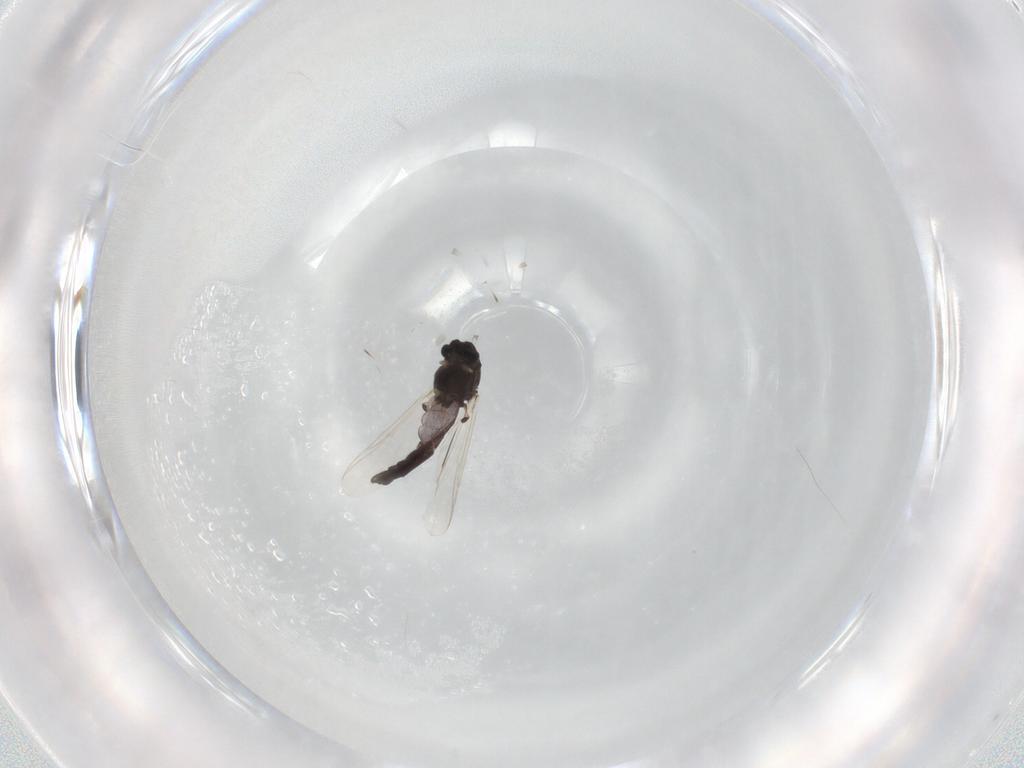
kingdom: Animalia
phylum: Arthropoda
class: Insecta
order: Diptera
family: Chironomidae
